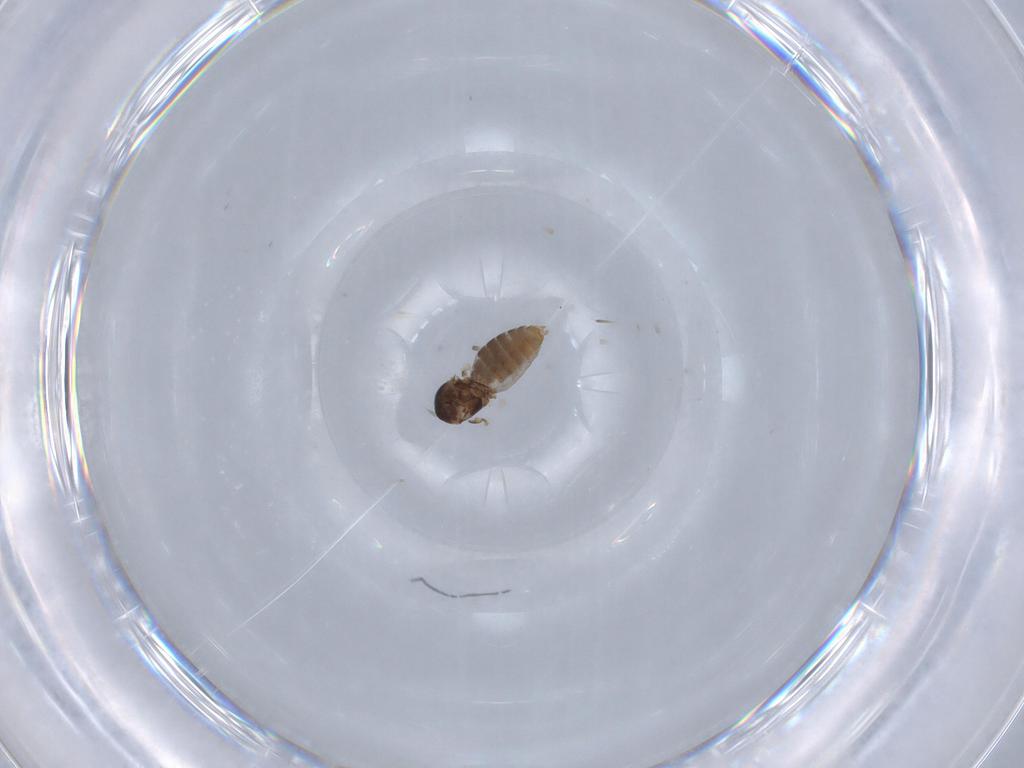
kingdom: Animalia
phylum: Arthropoda
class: Insecta
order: Diptera
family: Ceratopogonidae
